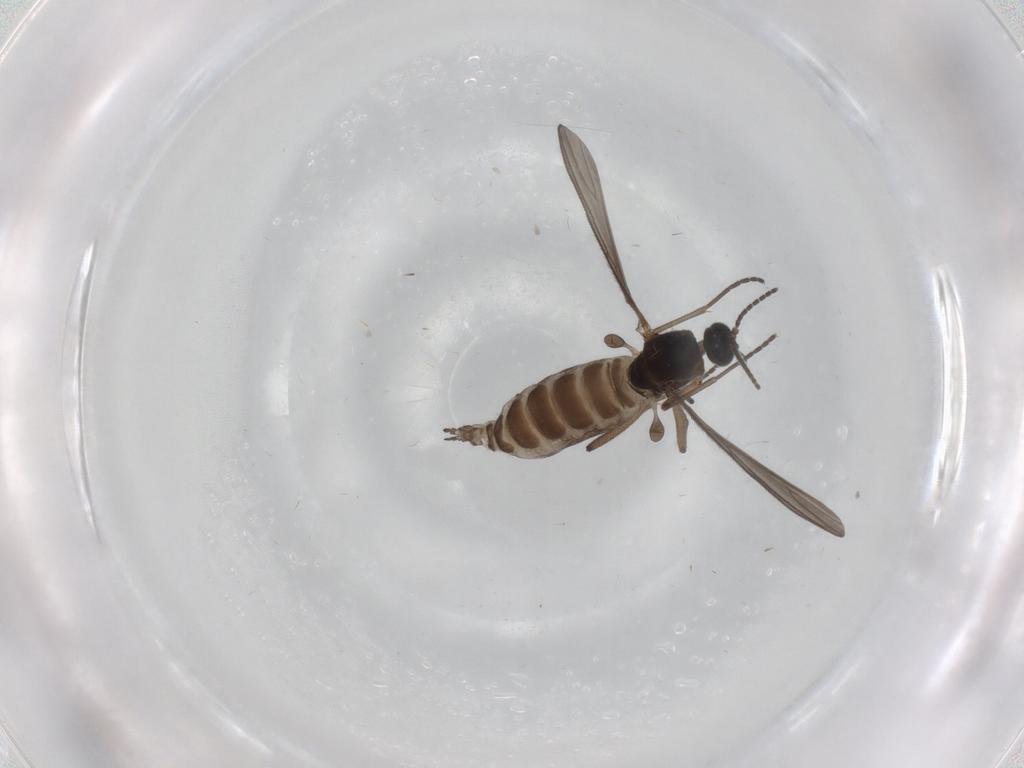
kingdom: Animalia
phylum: Arthropoda
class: Insecta
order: Diptera
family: Sciaridae
